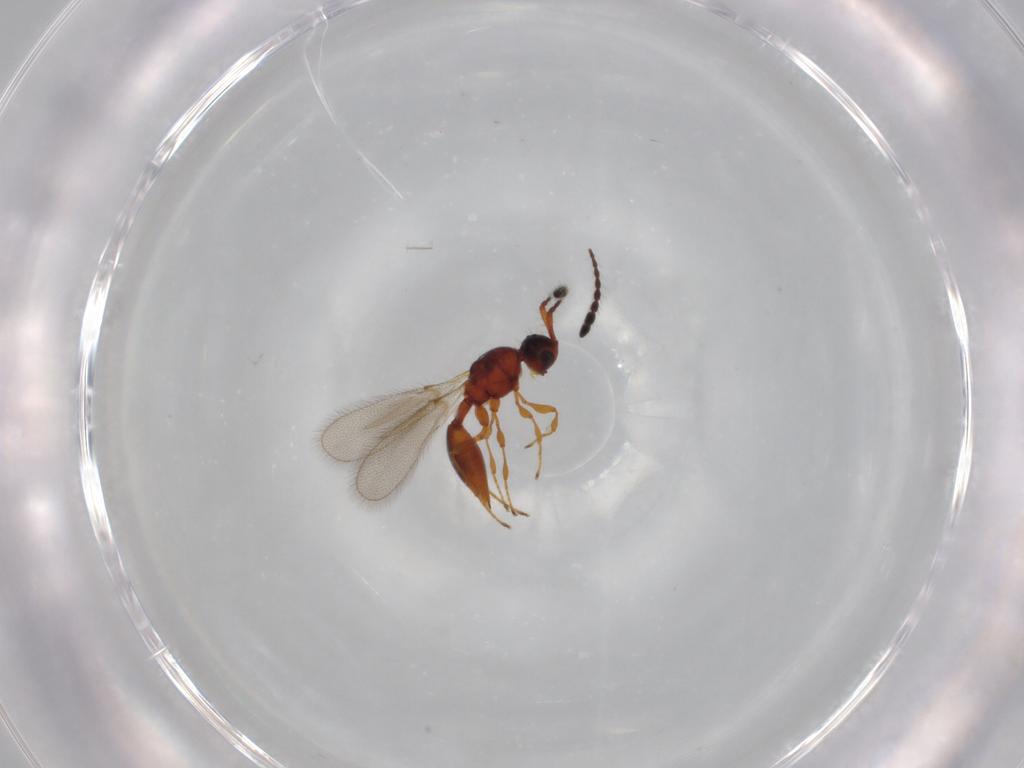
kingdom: Animalia
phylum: Arthropoda
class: Insecta
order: Hymenoptera
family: Diapriidae
